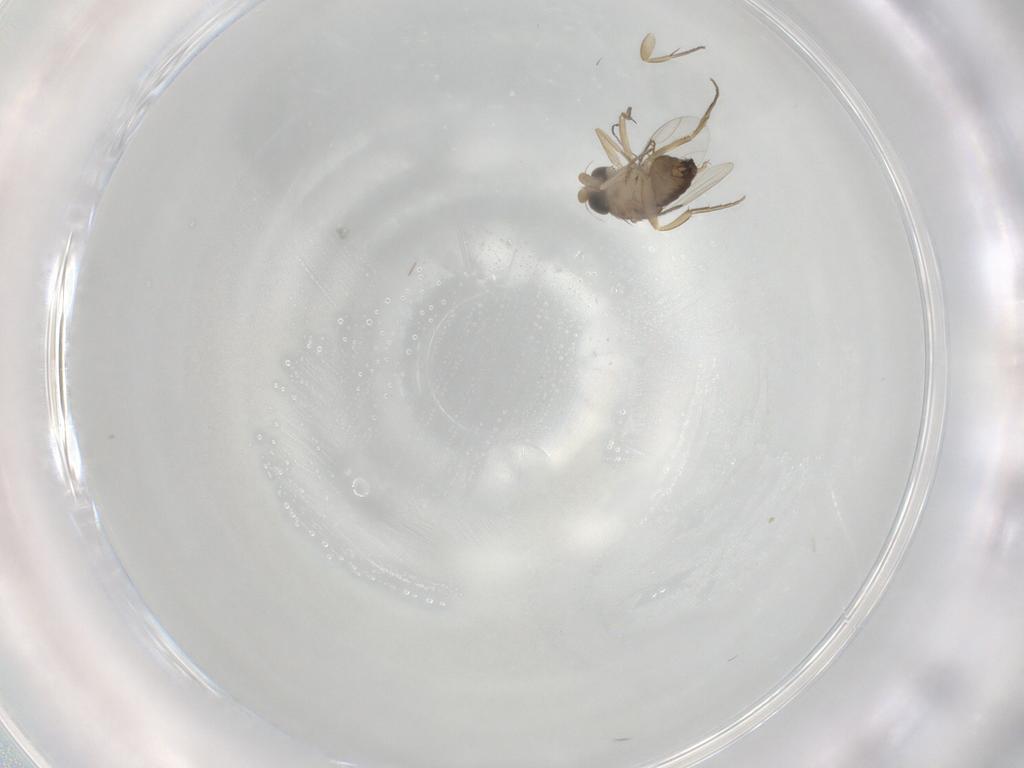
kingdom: Animalia
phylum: Arthropoda
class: Insecta
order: Diptera
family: Phoridae
